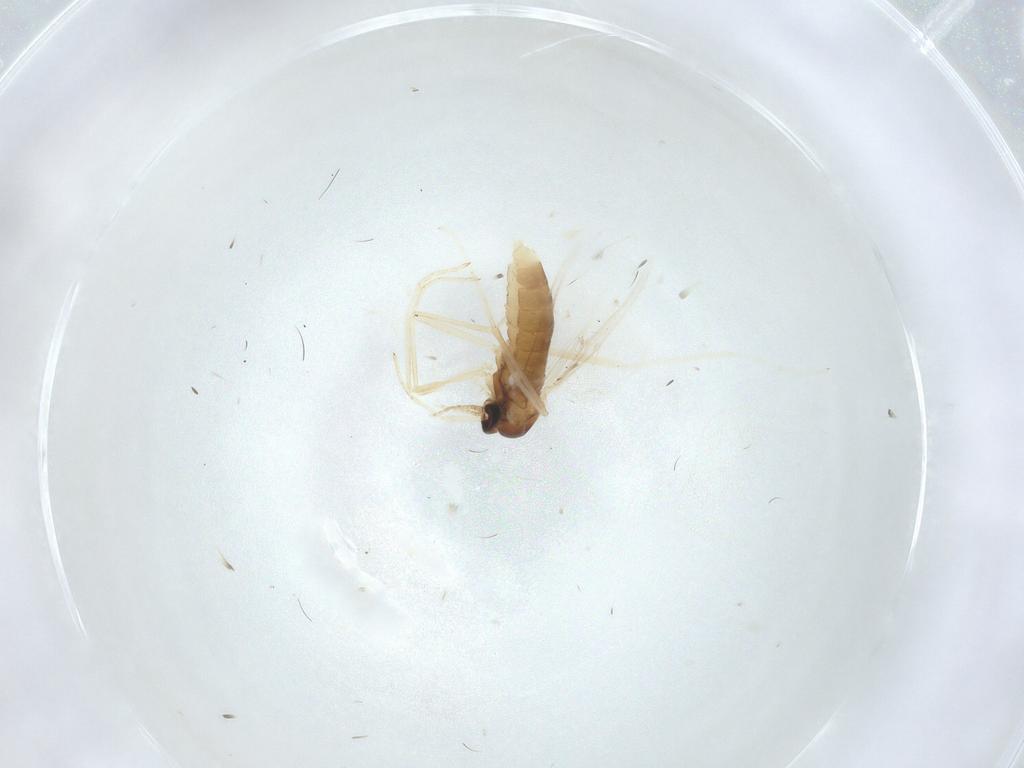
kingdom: Animalia
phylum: Arthropoda
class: Insecta
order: Diptera
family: Cecidomyiidae
